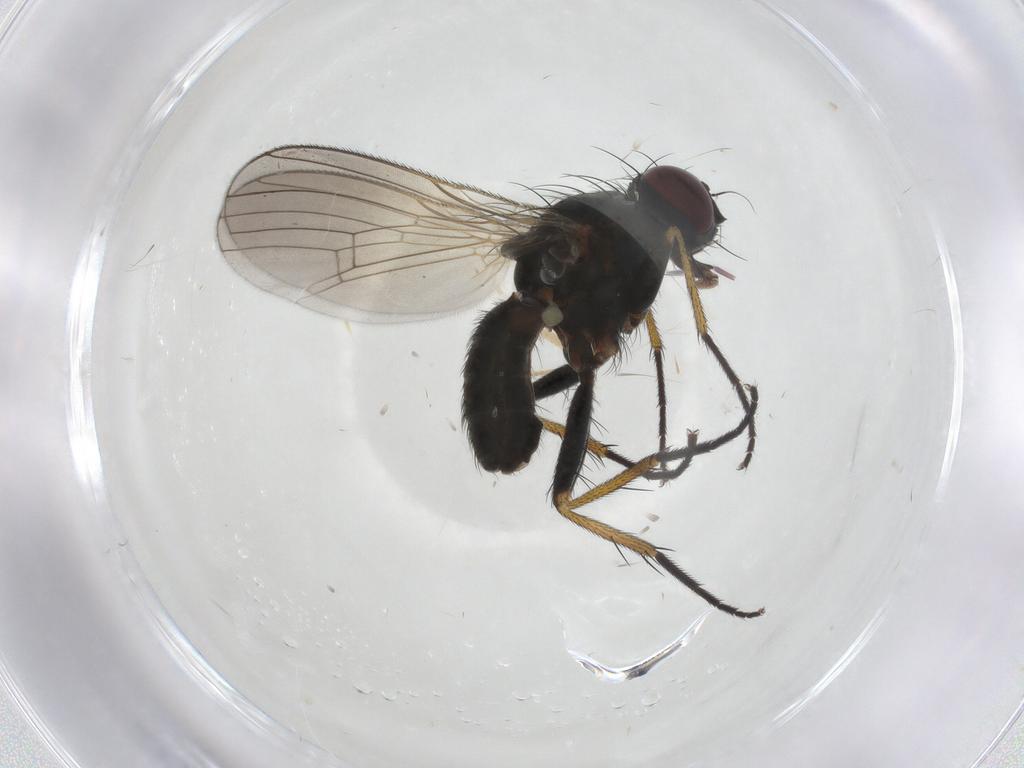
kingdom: Animalia
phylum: Arthropoda
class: Insecta
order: Diptera
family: Muscidae
